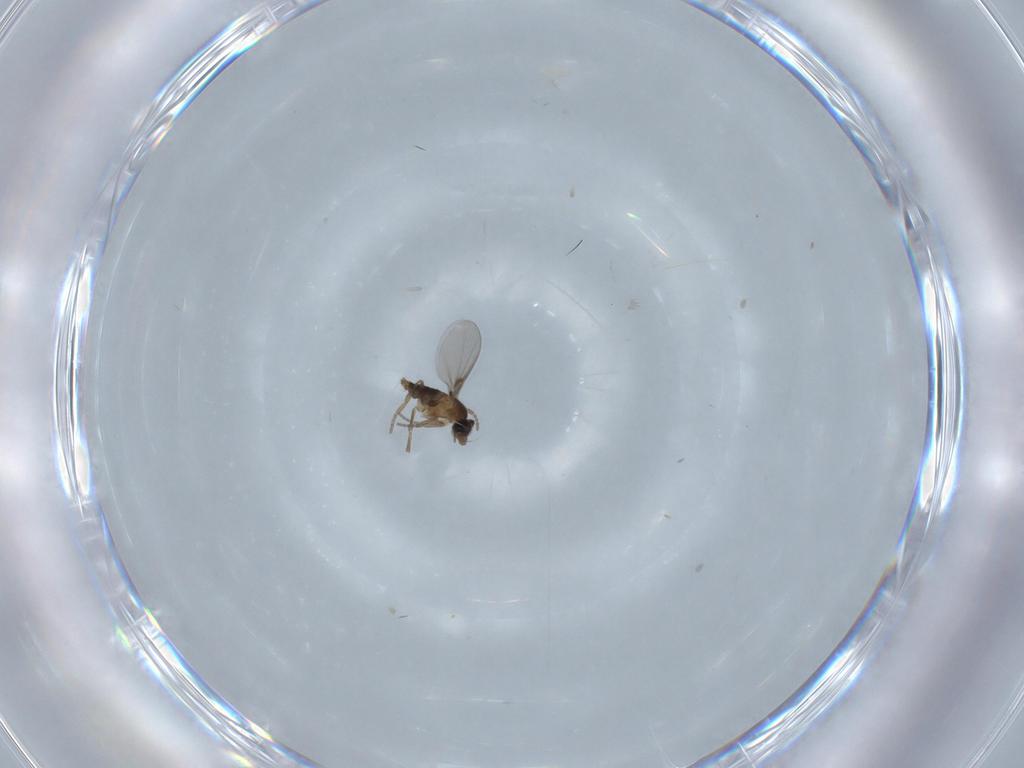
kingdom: Animalia
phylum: Arthropoda
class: Insecta
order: Diptera
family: Phoridae
